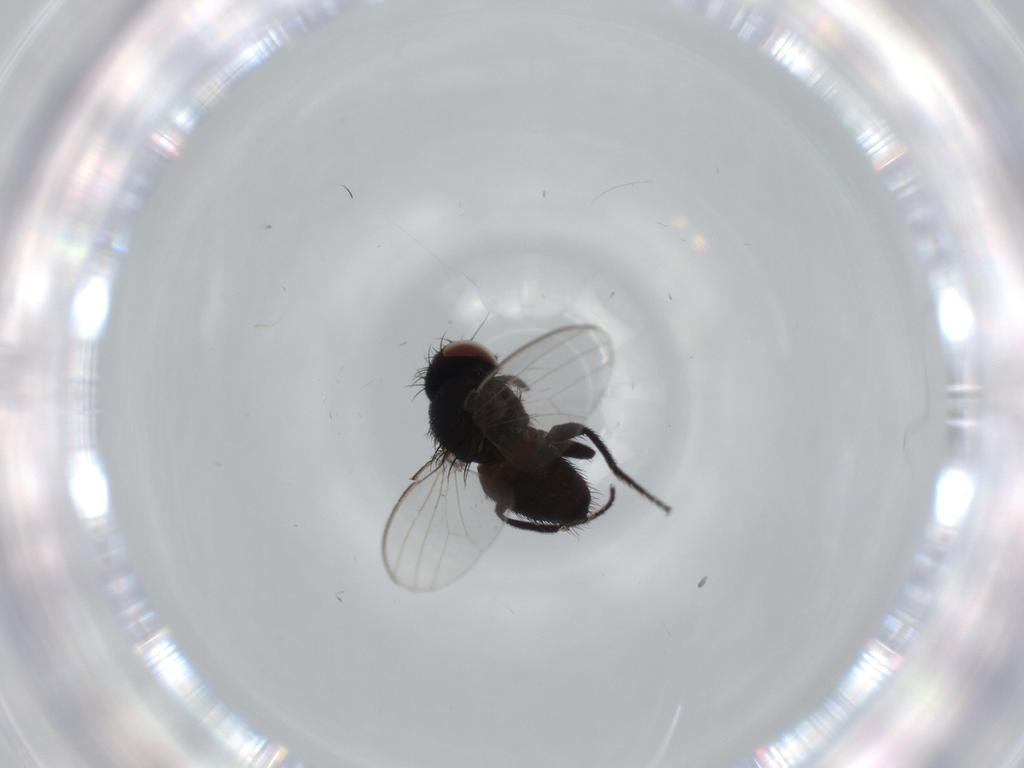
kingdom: Animalia
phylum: Arthropoda
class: Insecta
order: Diptera
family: Milichiidae
